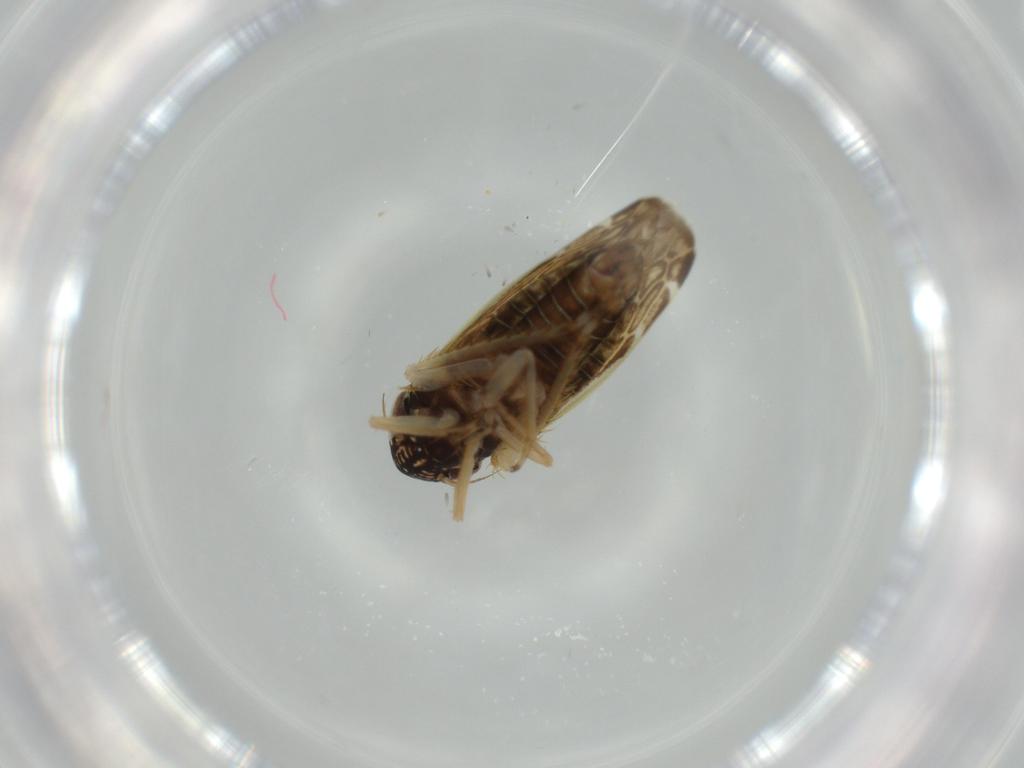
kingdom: Animalia
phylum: Arthropoda
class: Insecta
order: Hemiptera
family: Cicadellidae
